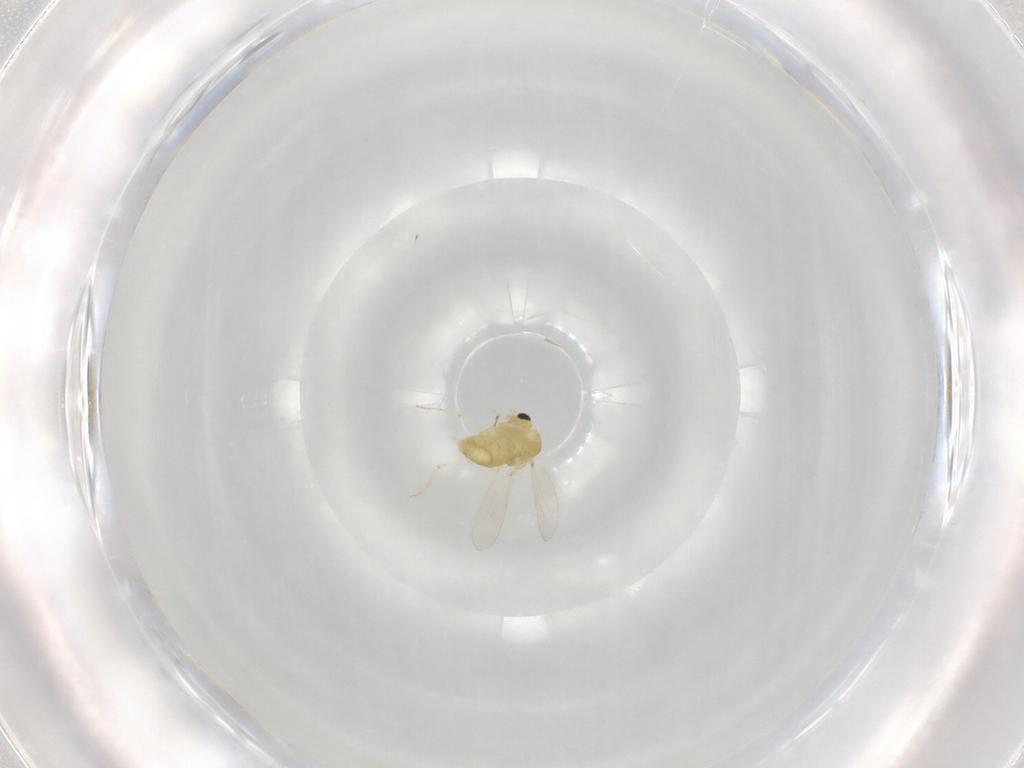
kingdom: Animalia
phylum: Arthropoda
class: Insecta
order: Diptera
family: Chironomidae
